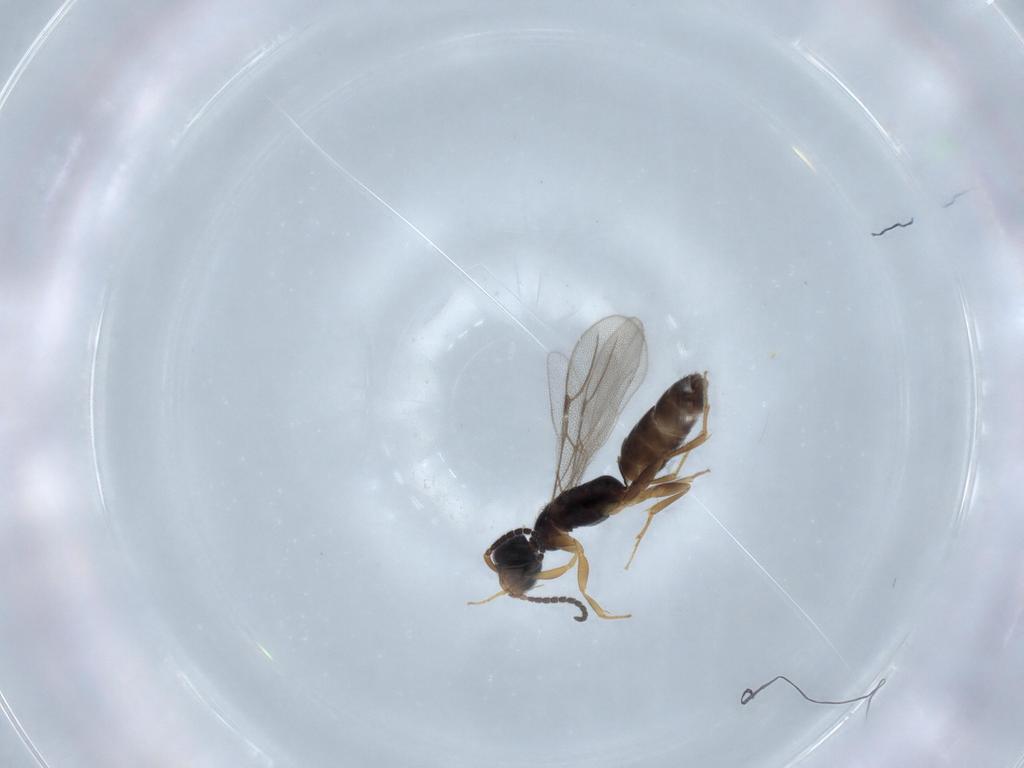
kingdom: Animalia
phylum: Arthropoda
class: Insecta
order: Hymenoptera
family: Bethylidae
